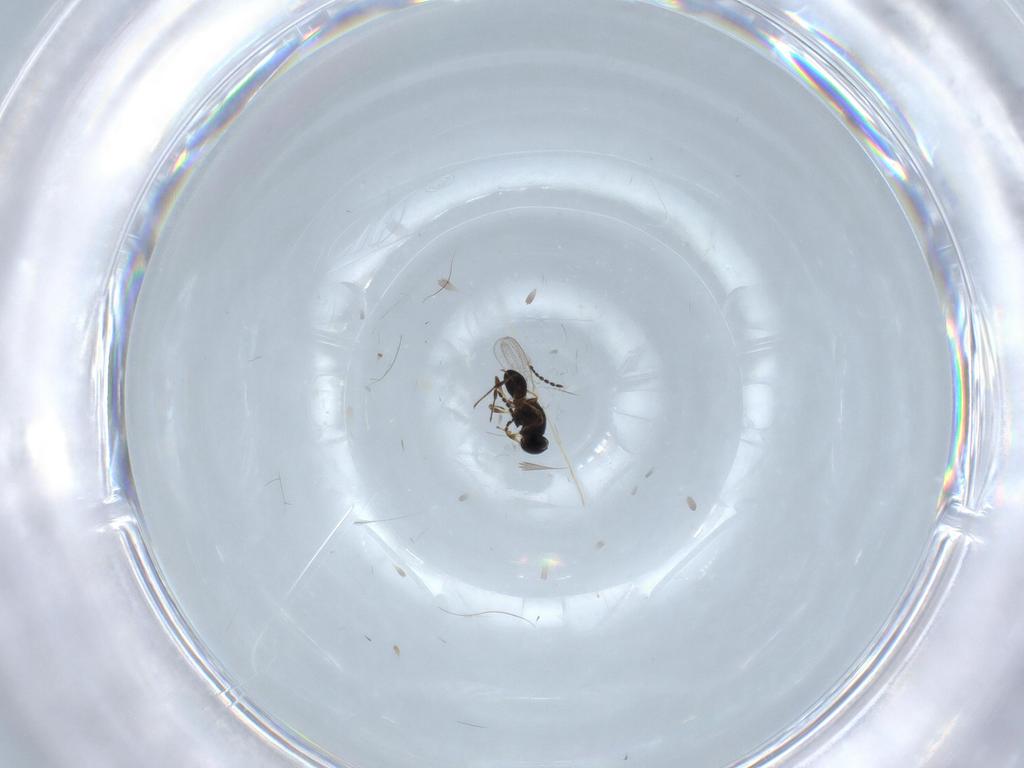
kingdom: Animalia
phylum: Arthropoda
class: Insecta
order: Hymenoptera
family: Platygastridae
